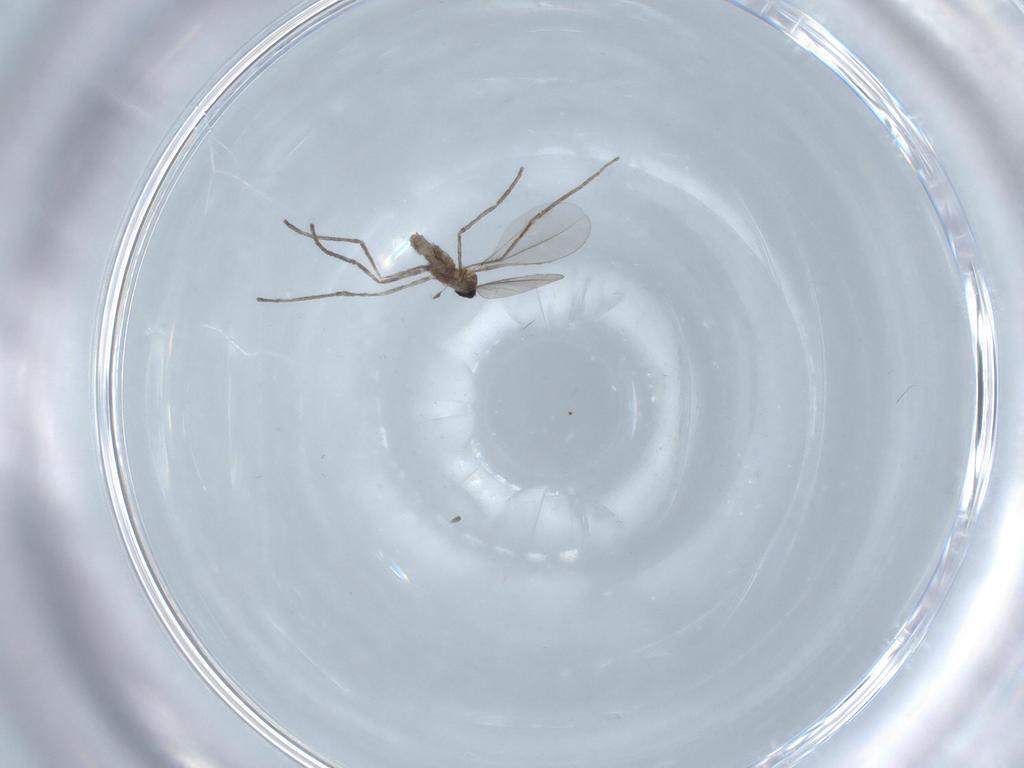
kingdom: Animalia
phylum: Arthropoda
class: Insecta
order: Diptera
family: Cecidomyiidae
